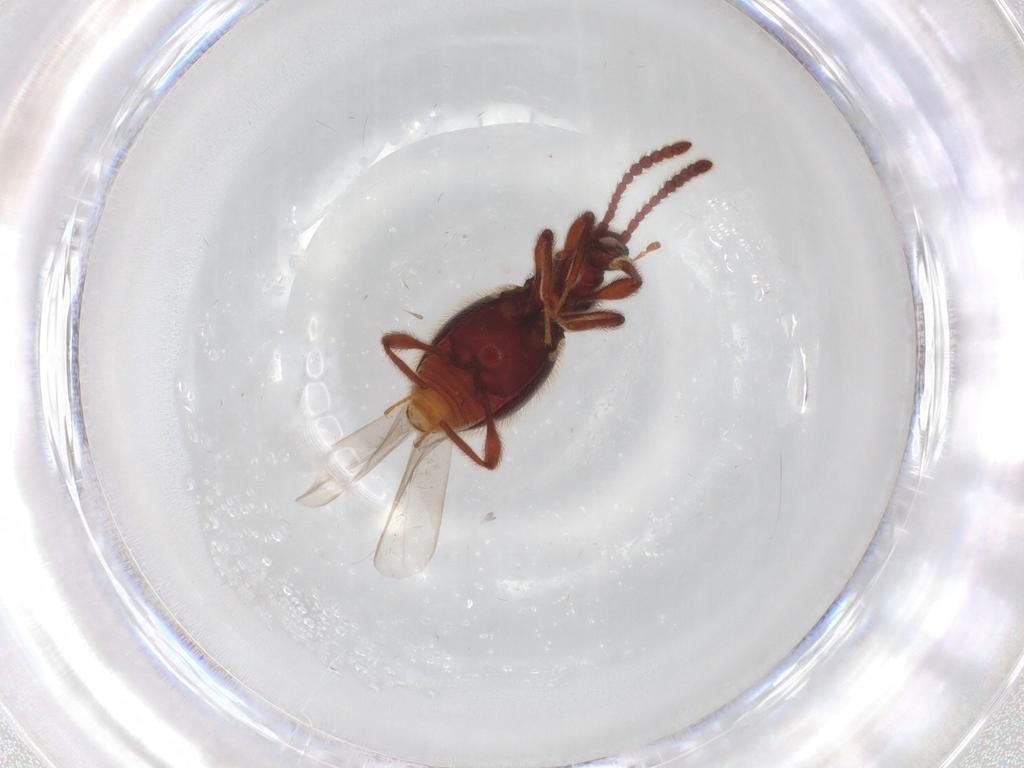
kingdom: Animalia
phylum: Arthropoda
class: Insecta
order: Coleoptera
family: Staphylinidae
